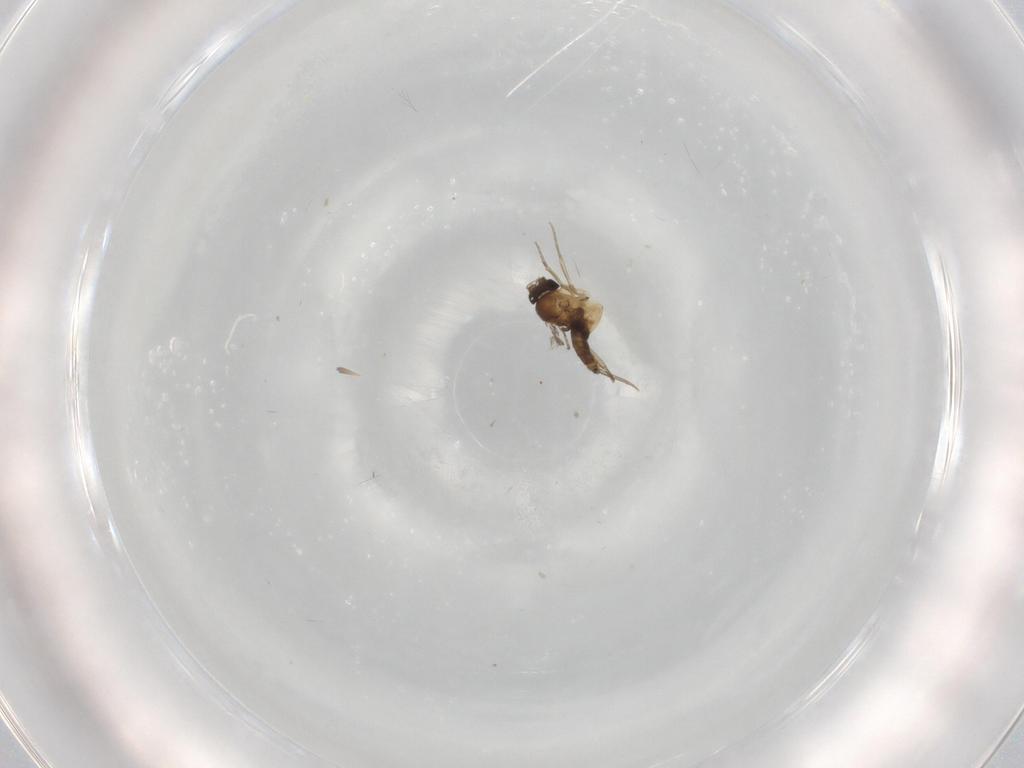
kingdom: Animalia
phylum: Arthropoda
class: Insecta
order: Diptera
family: Phoridae
